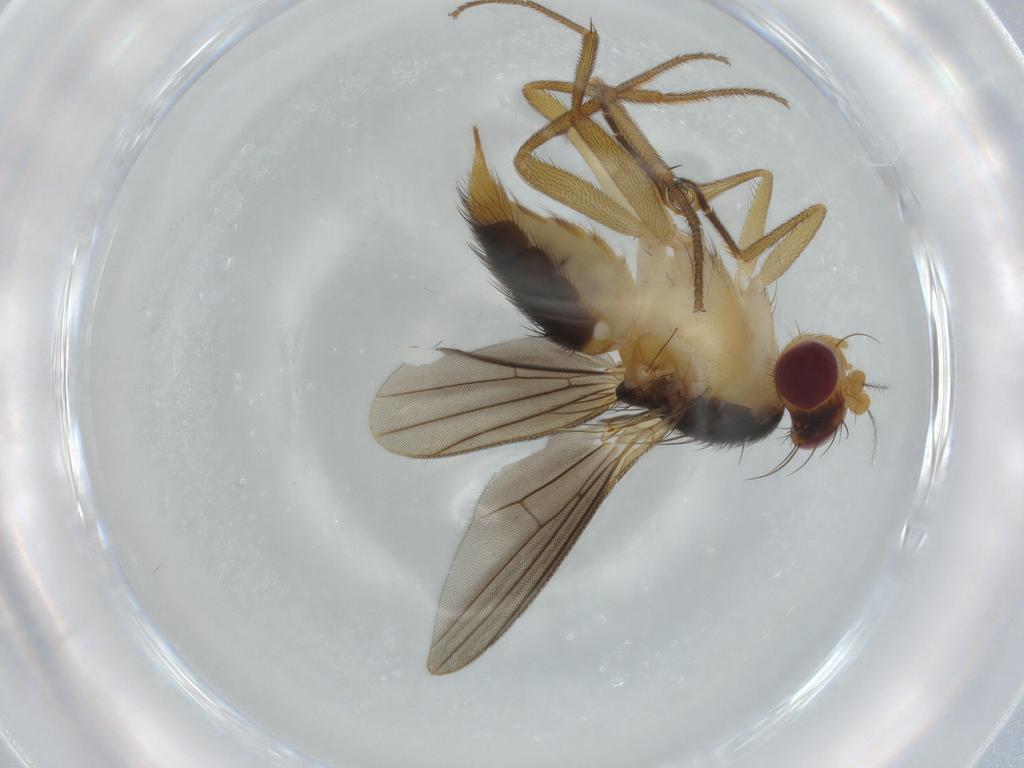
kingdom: Animalia
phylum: Arthropoda
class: Insecta
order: Diptera
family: Clusiidae
